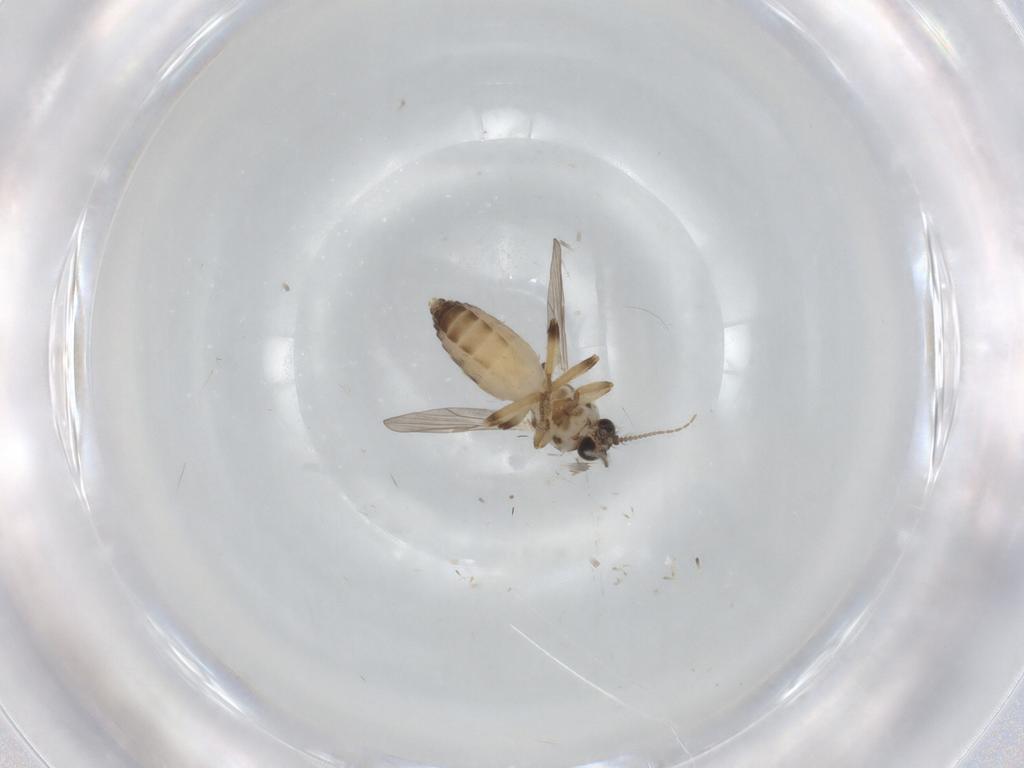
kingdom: Animalia
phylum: Arthropoda
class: Insecta
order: Diptera
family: Ceratopogonidae
